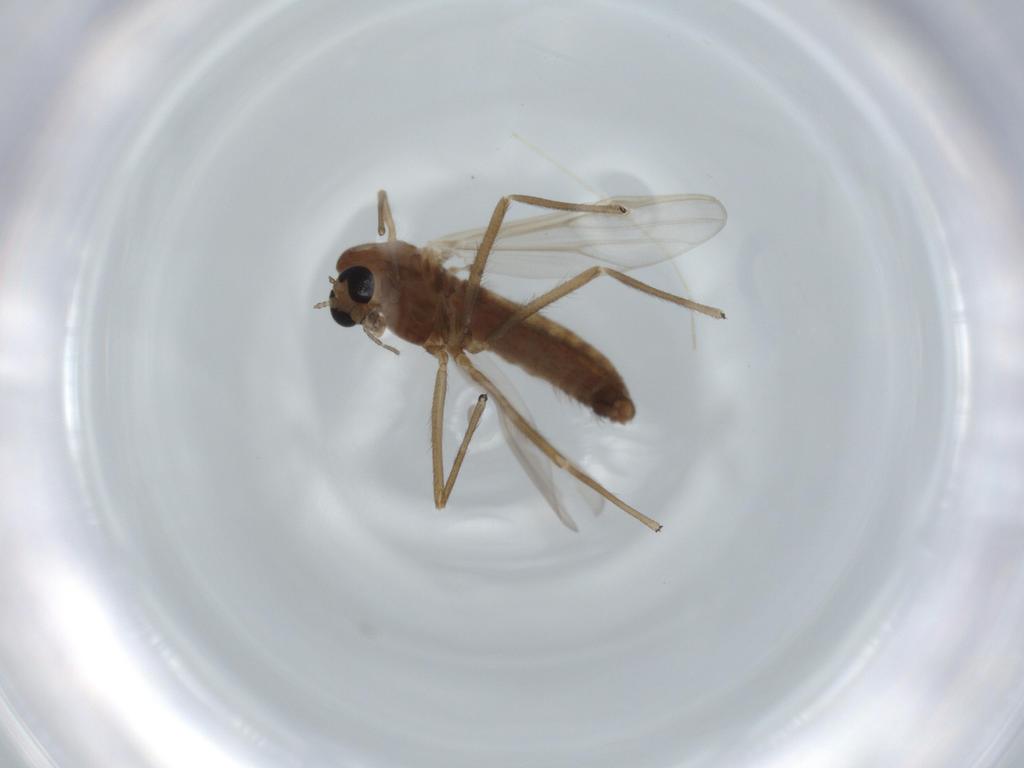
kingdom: Animalia
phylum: Arthropoda
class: Insecta
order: Diptera
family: Chironomidae
